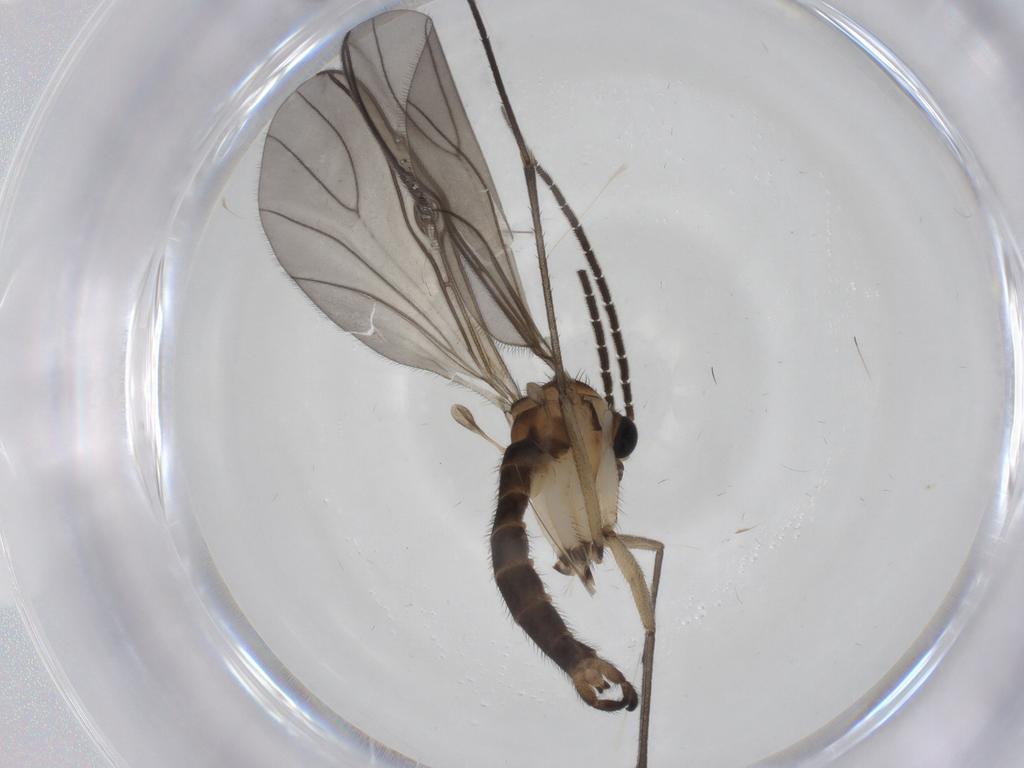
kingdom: Animalia
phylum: Arthropoda
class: Insecta
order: Diptera
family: Sciaridae
